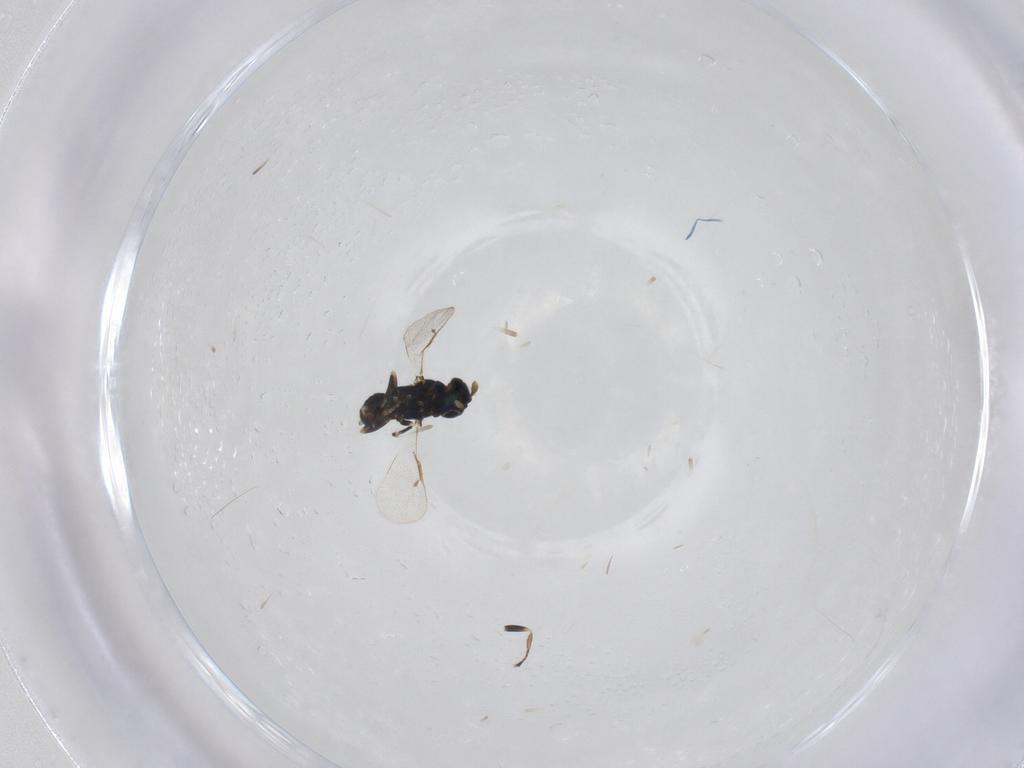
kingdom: Animalia
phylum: Arthropoda
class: Insecta
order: Hymenoptera
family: Eulophidae
